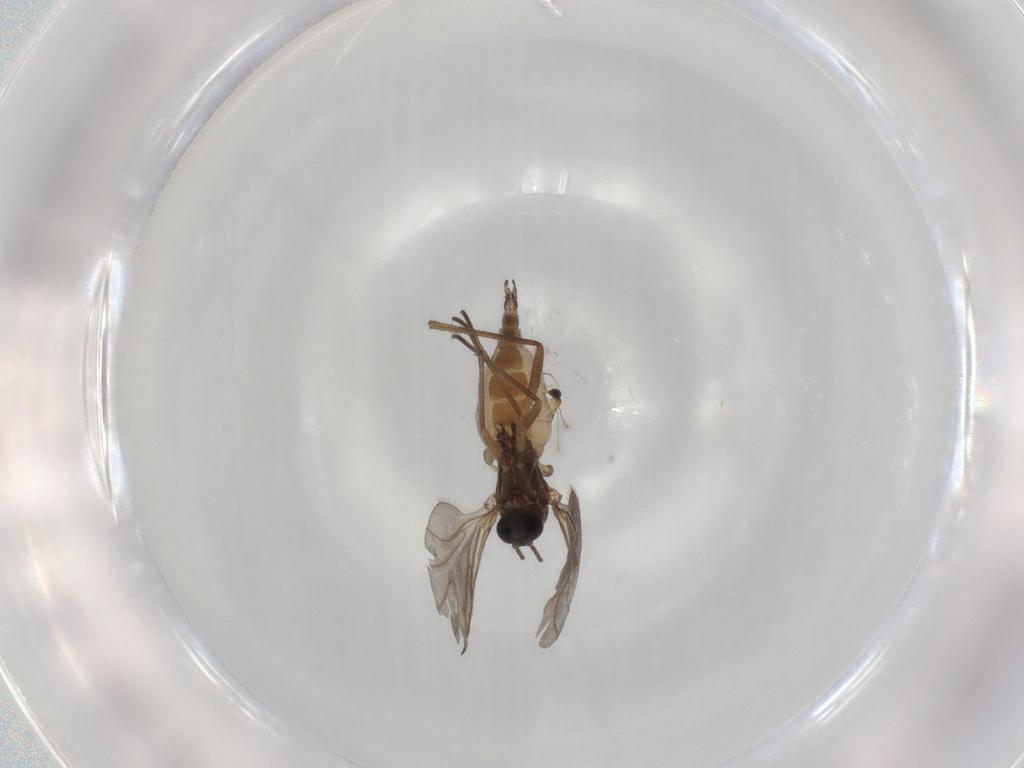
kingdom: Animalia
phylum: Arthropoda
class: Insecta
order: Diptera
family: Sciaridae
